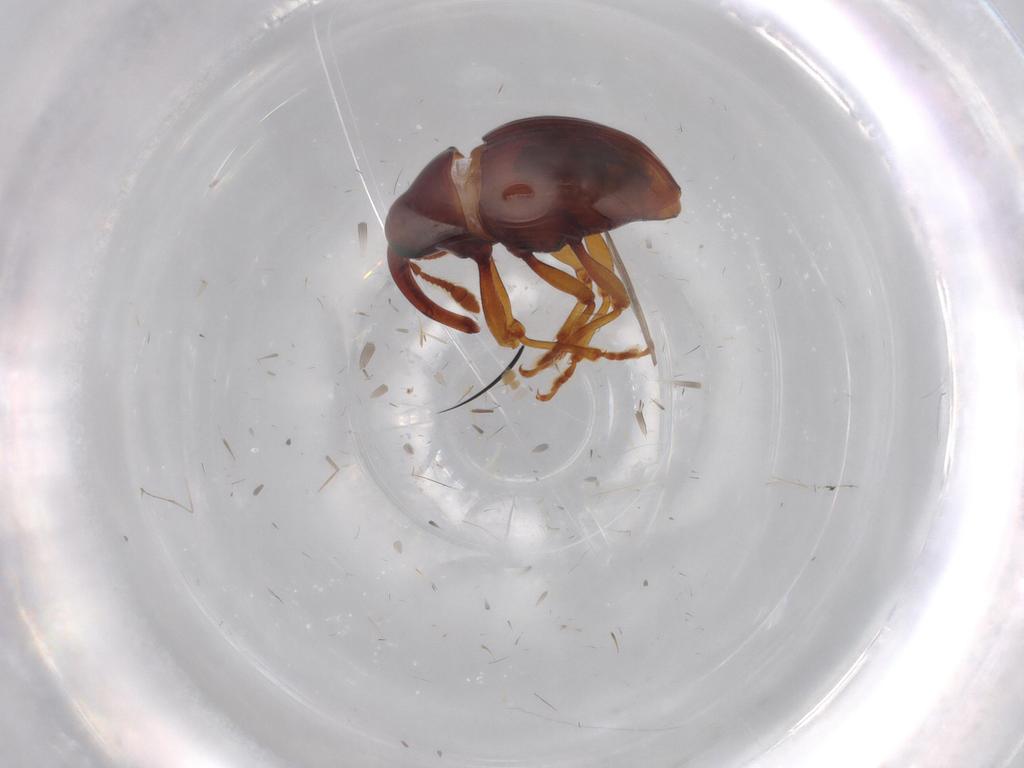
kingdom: Animalia
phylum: Arthropoda
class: Insecta
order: Coleoptera
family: Curculionidae
